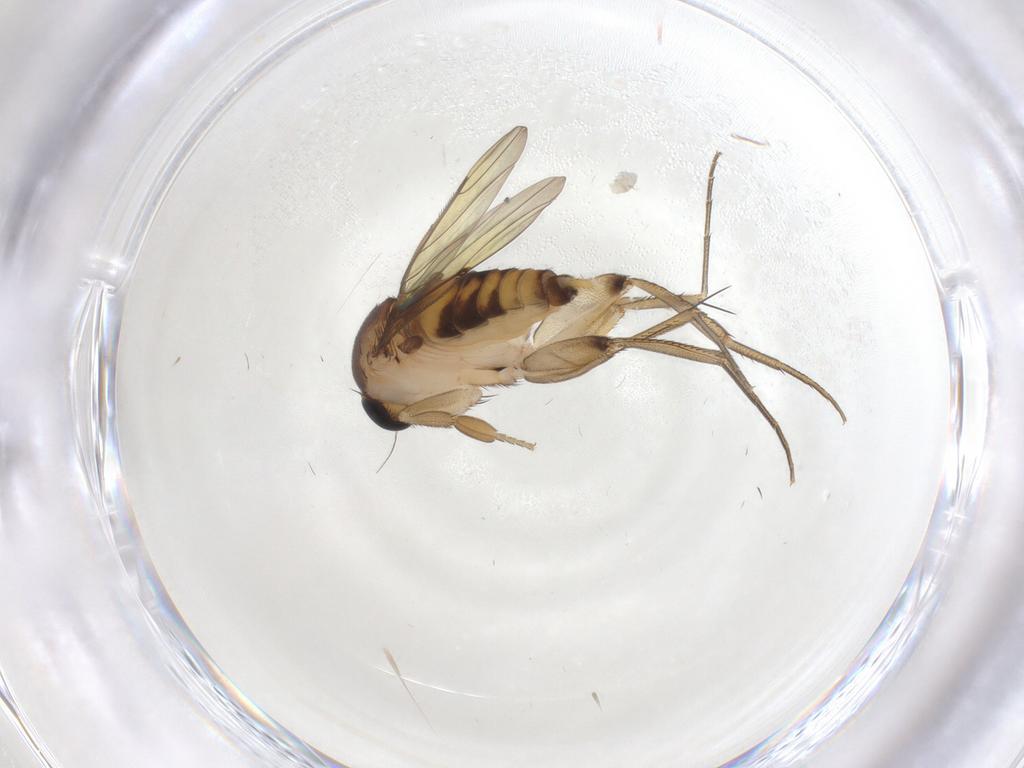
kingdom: Animalia
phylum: Arthropoda
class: Insecta
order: Diptera
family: Phoridae
